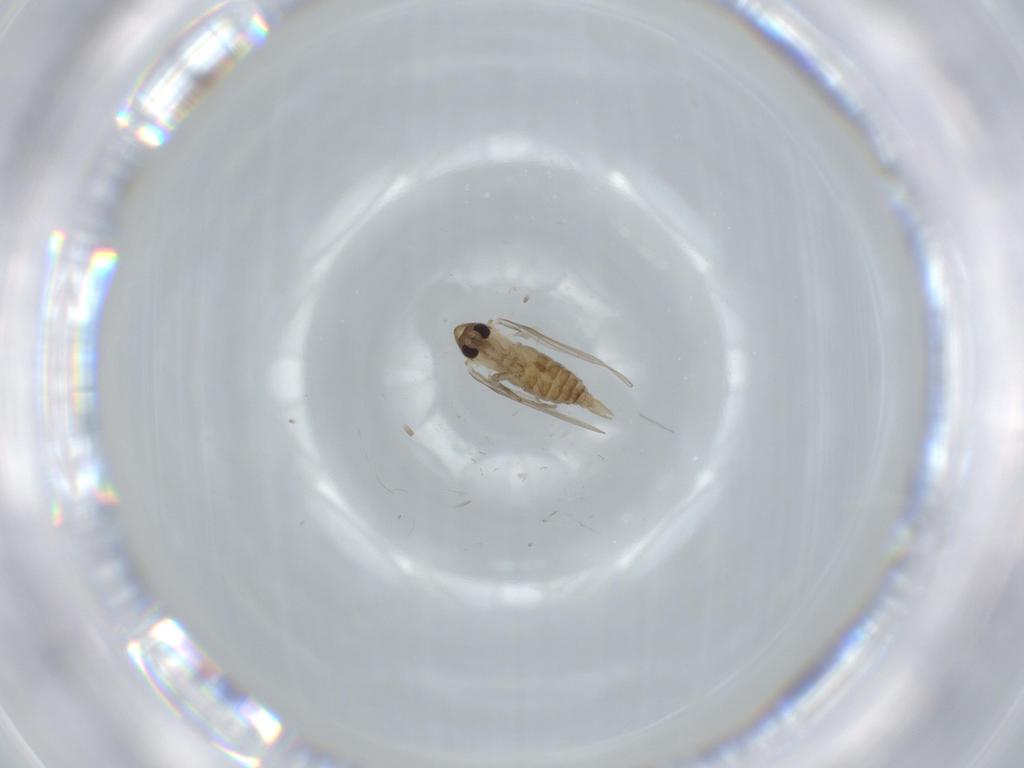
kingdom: Animalia
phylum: Arthropoda
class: Insecta
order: Diptera
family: Psychodidae
